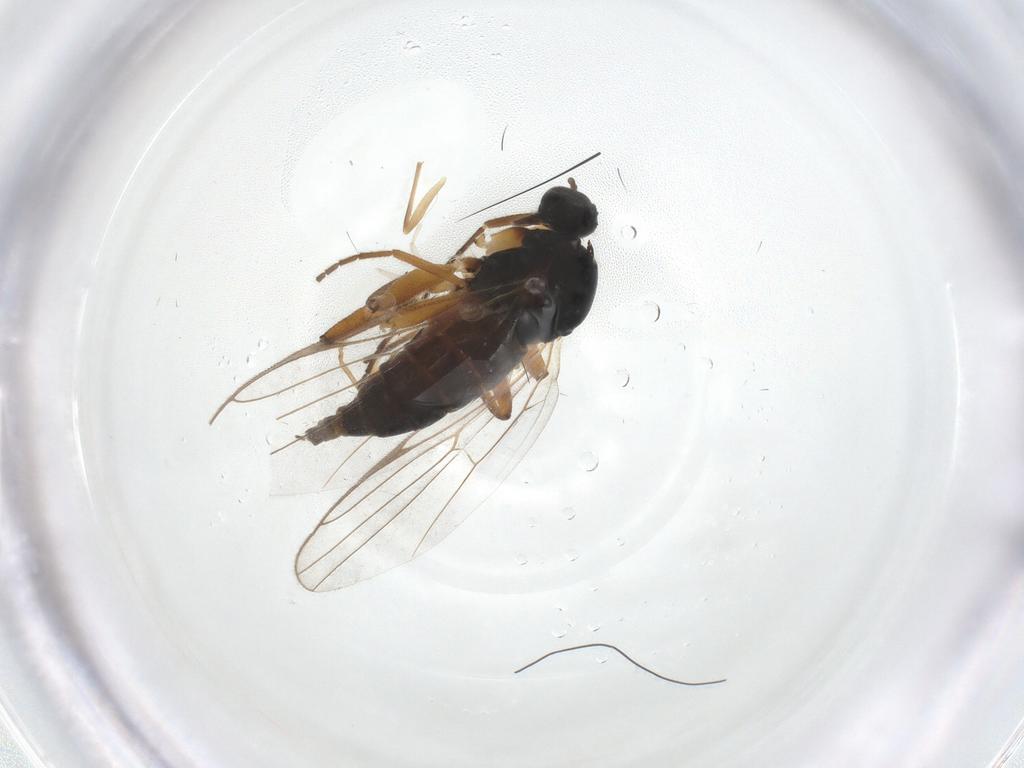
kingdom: Animalia
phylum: Arthropoda
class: Insecta
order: Diptera
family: Hybotidae
